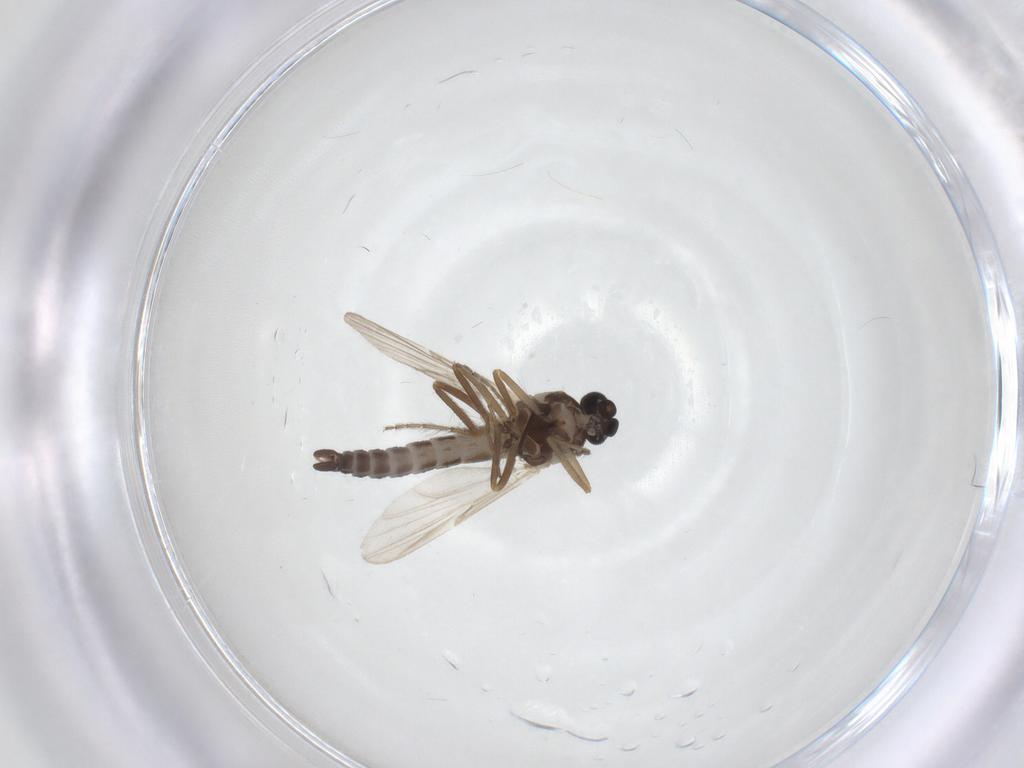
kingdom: Animalia
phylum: Arthropoda
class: Insecta
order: Diptera
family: Ceratopogonidae
